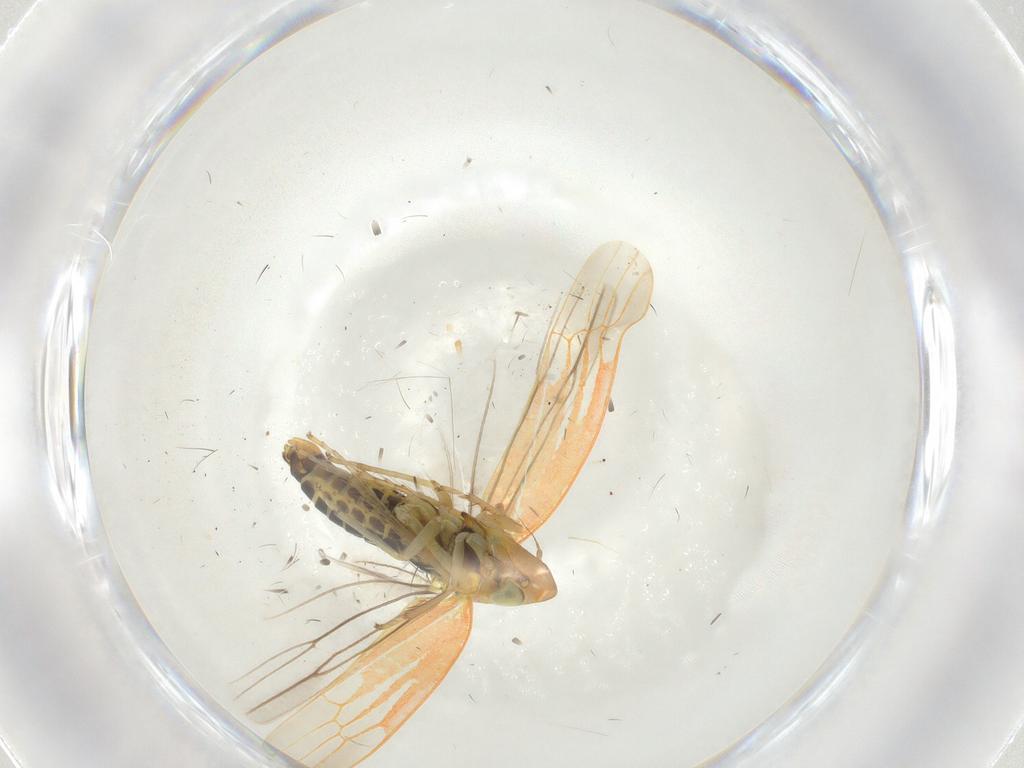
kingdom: Animalia
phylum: Arthropoda
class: Insecta
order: Hemiptera
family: Cicadellidae
